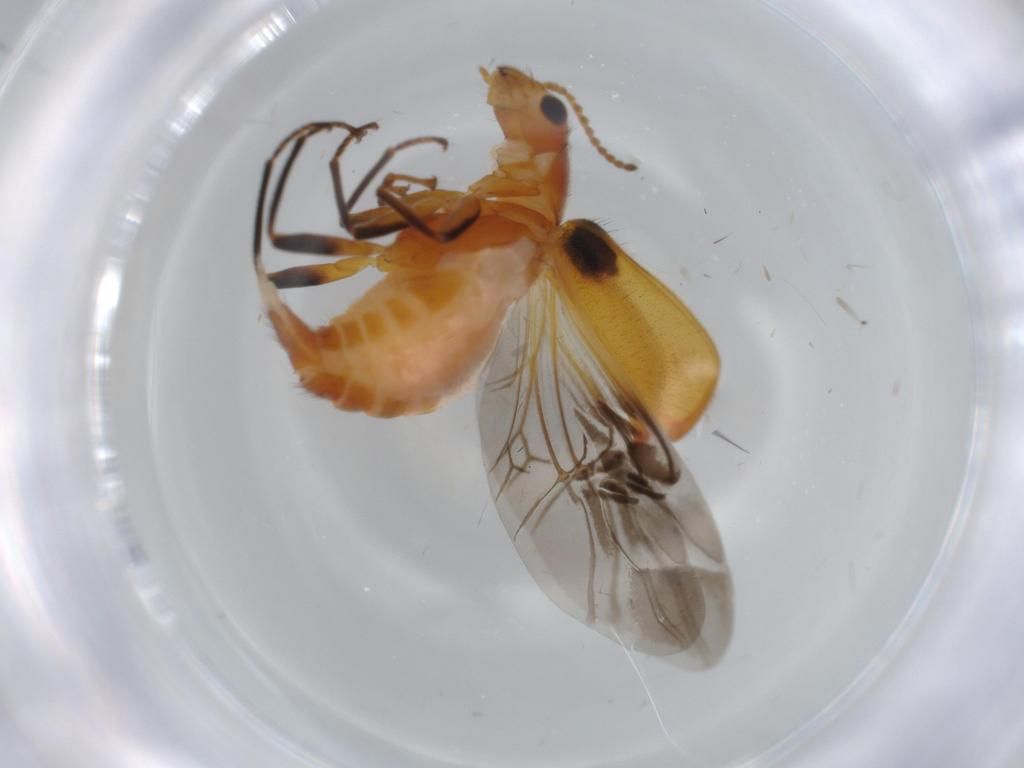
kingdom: Animalia
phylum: Arthropoda
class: Insecta
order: Coleoptera
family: Melyridae
